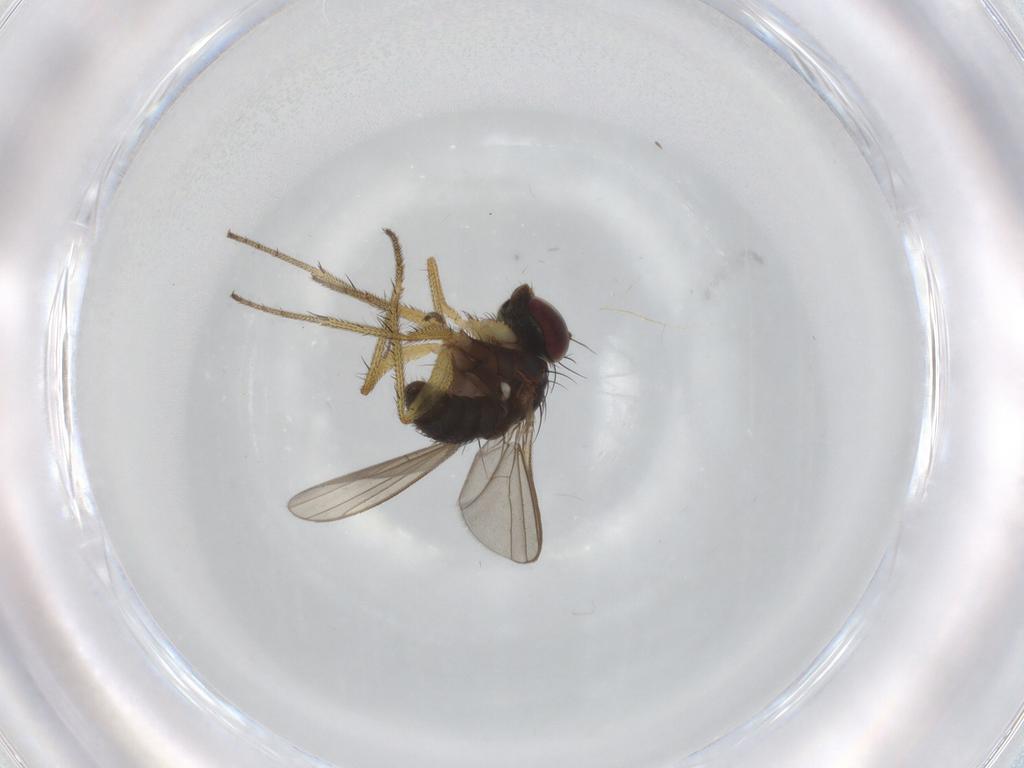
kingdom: Animalia
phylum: Arthropoda
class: Insecta
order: Diptera
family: Dolichopodidae
